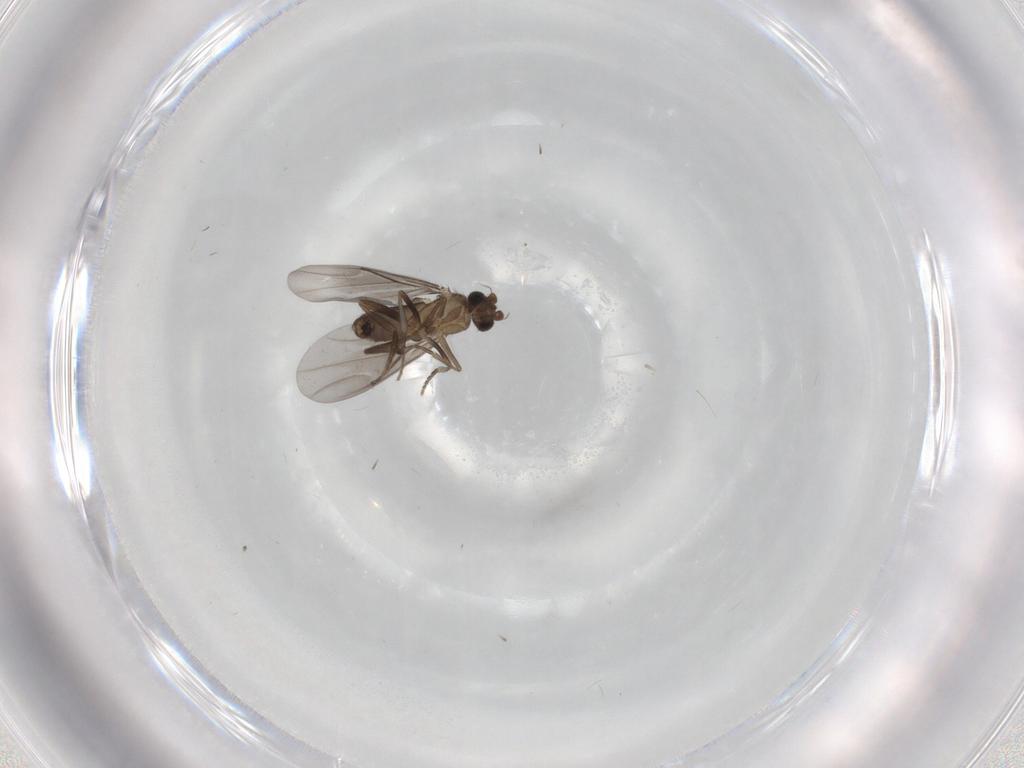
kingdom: Animalia
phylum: Arthropoda
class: Insecta
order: Diptera
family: Phoridae
